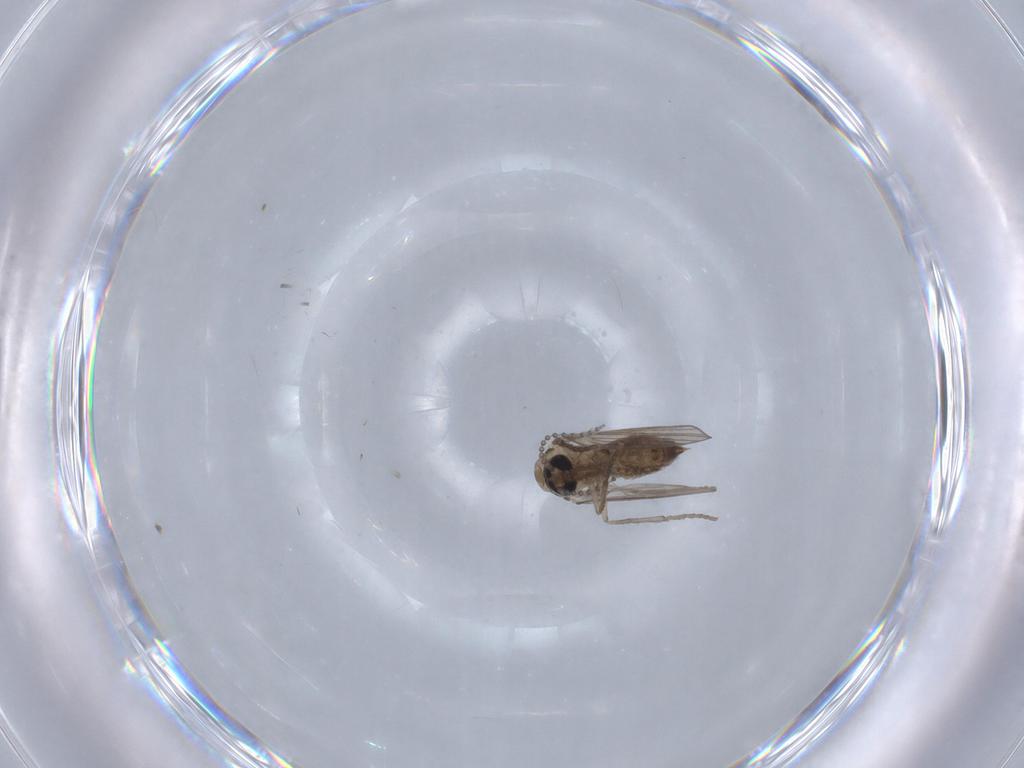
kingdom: Animalia
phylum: Arthropoda
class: Insecta
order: Diptera
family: Psychodidae
